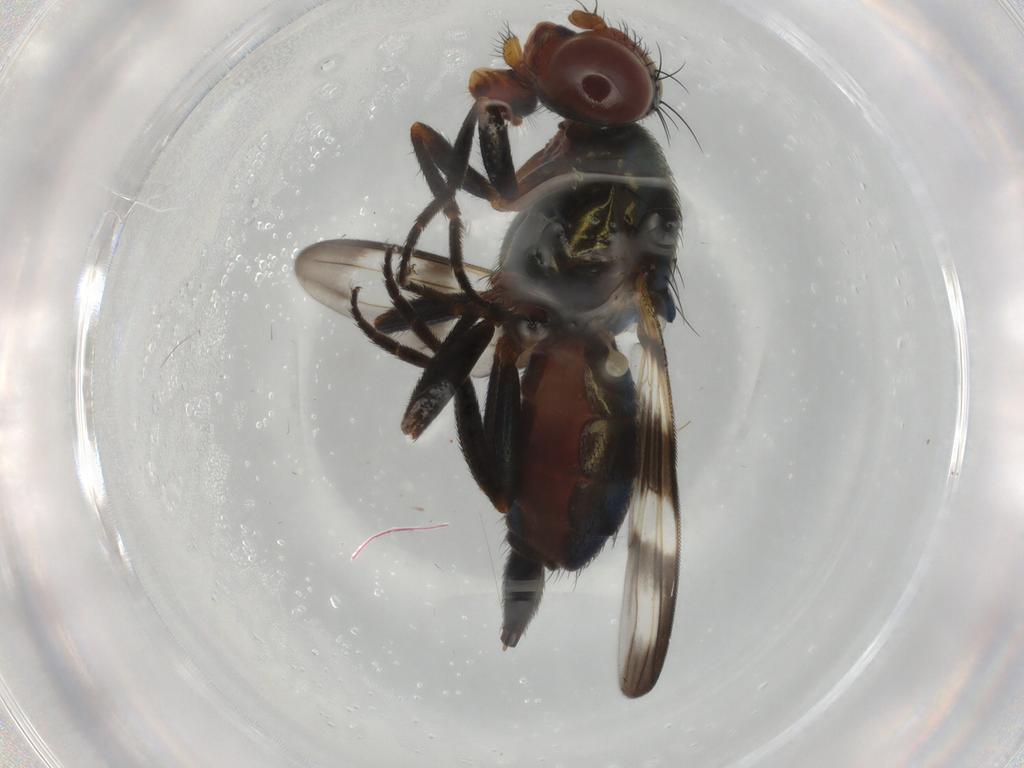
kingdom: Animalia
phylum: Arthropoda
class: Insecta
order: Diptera
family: Ulidiidae
